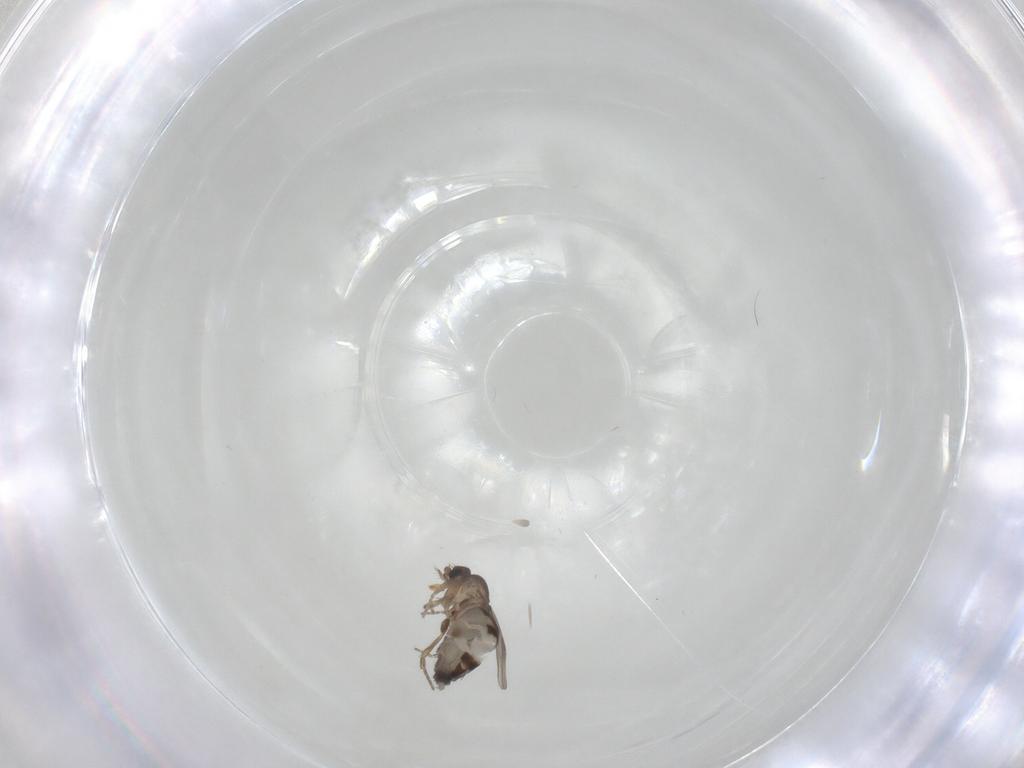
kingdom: Animalia
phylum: Arthropoda
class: Insecta
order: Diptera
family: Phoridae
